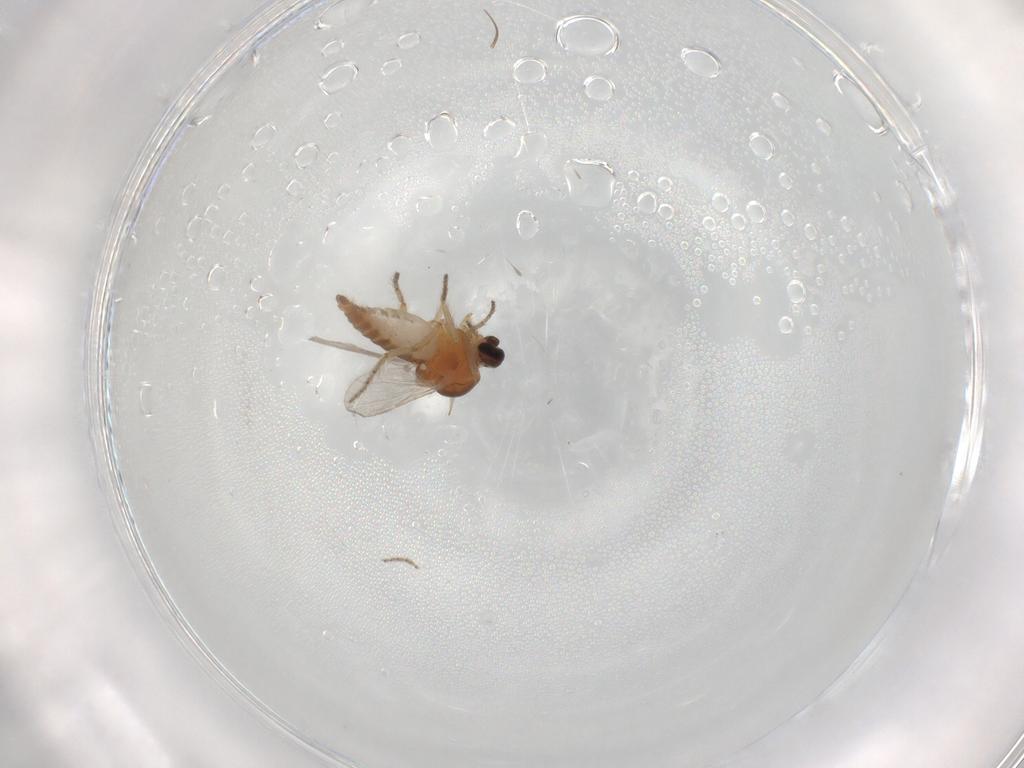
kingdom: Animalia
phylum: Arthropoda
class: Insecta
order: Diptera
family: Ceratopogonidae
